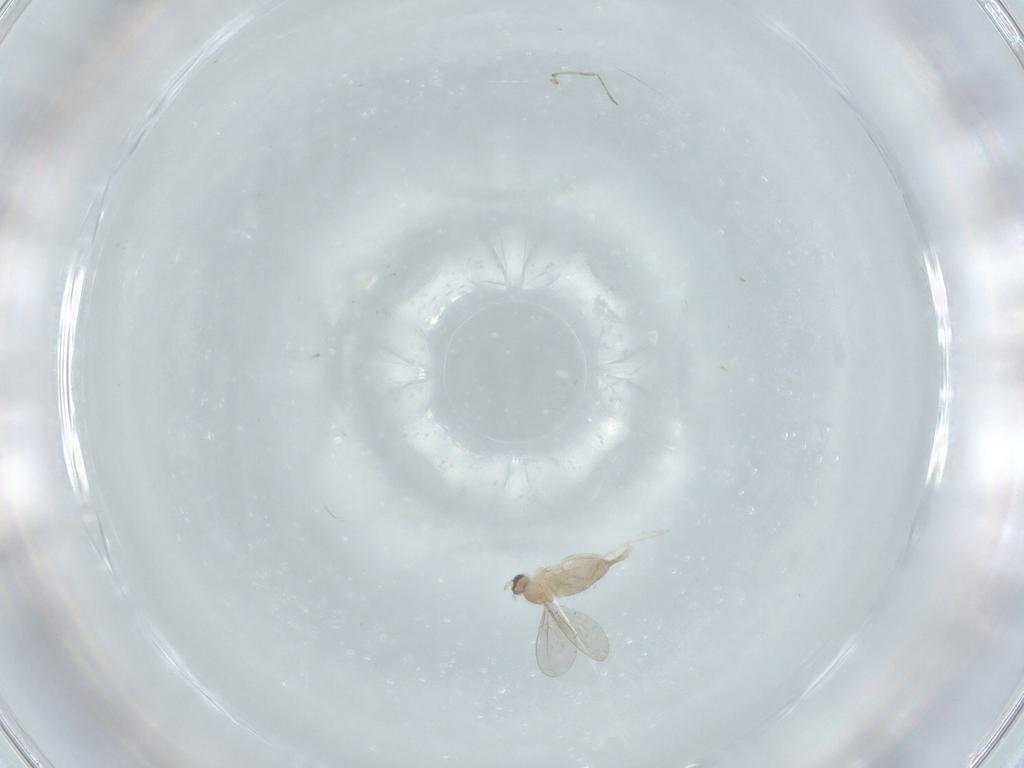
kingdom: Animalia
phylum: Arthropoda
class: Insecta
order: Diptera
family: Cecidomyiidae
